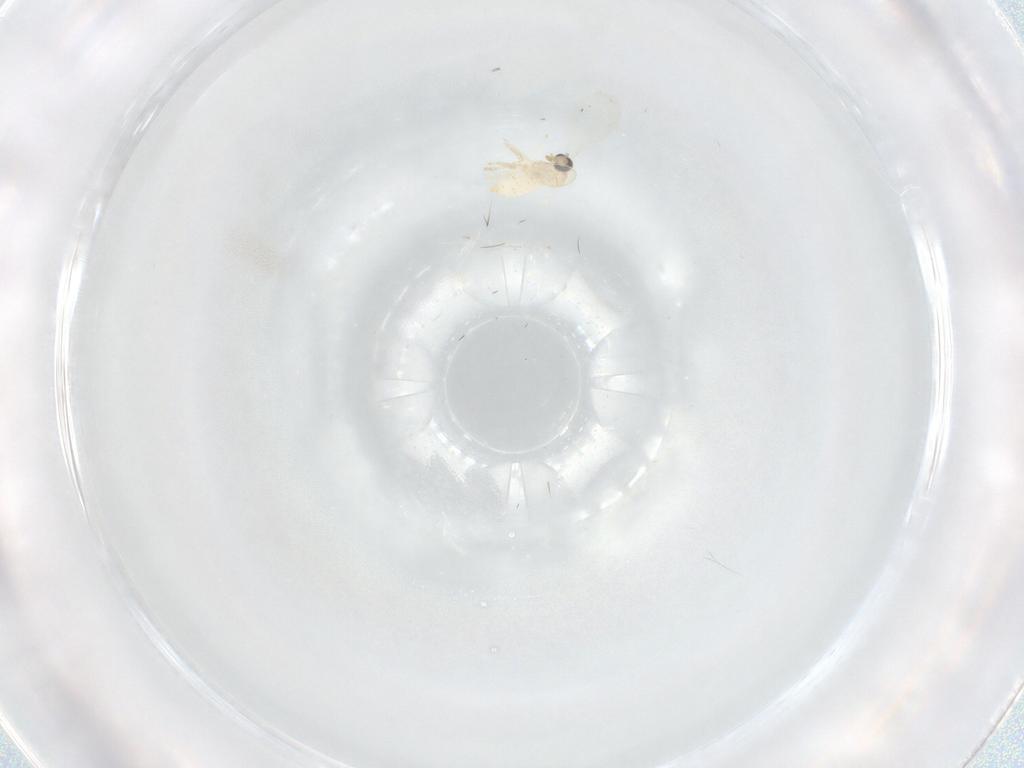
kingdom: Animalia
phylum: Arthropoda
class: Insecta
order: Diptera
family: Cecidomyiidae
